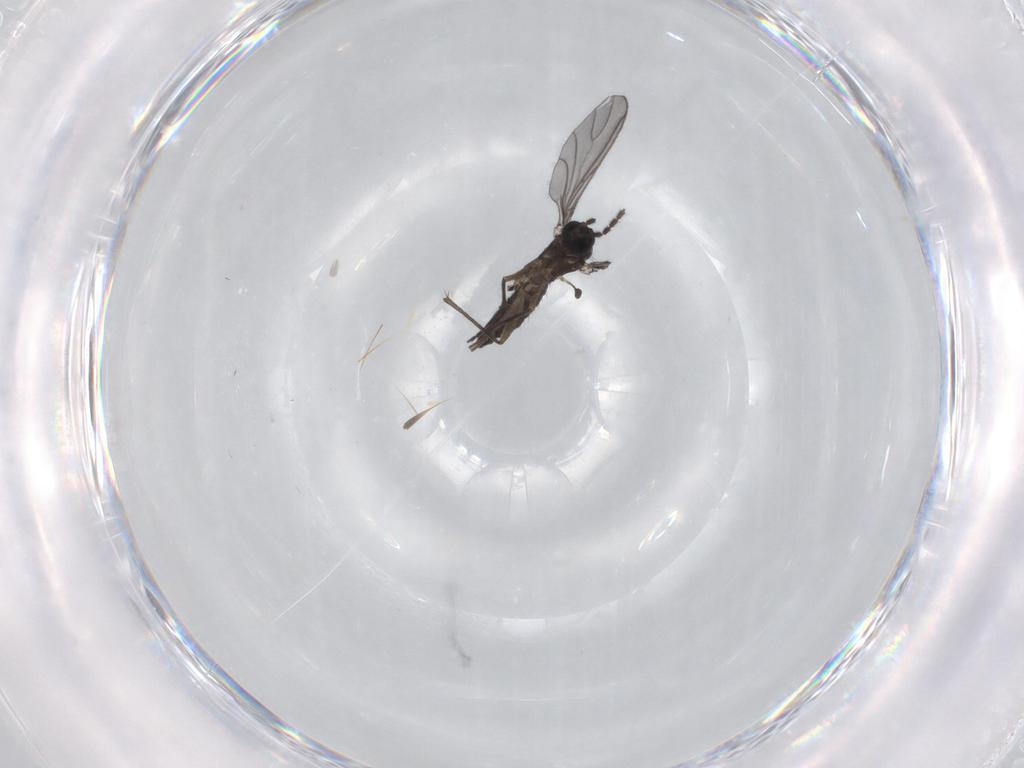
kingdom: Animalia
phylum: Arthropoda
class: Insecta
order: Diptera
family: Sciaridae
